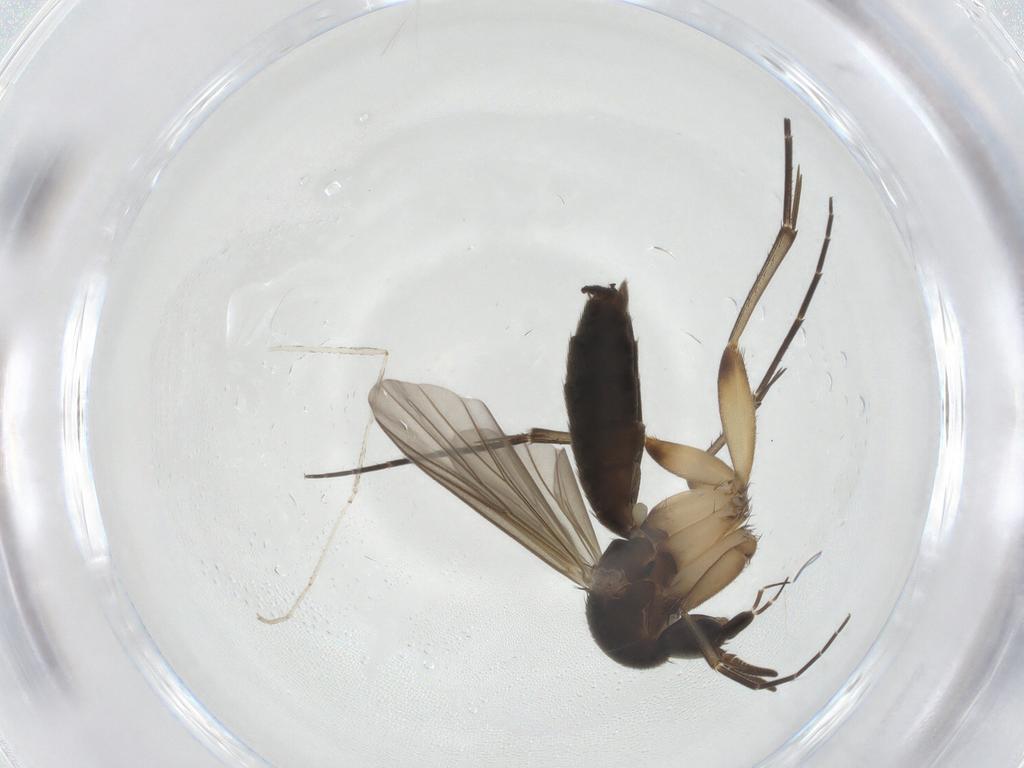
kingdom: Animalia
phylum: Arthropoda
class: Insecta
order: Diptera
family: Mycetophilidae
